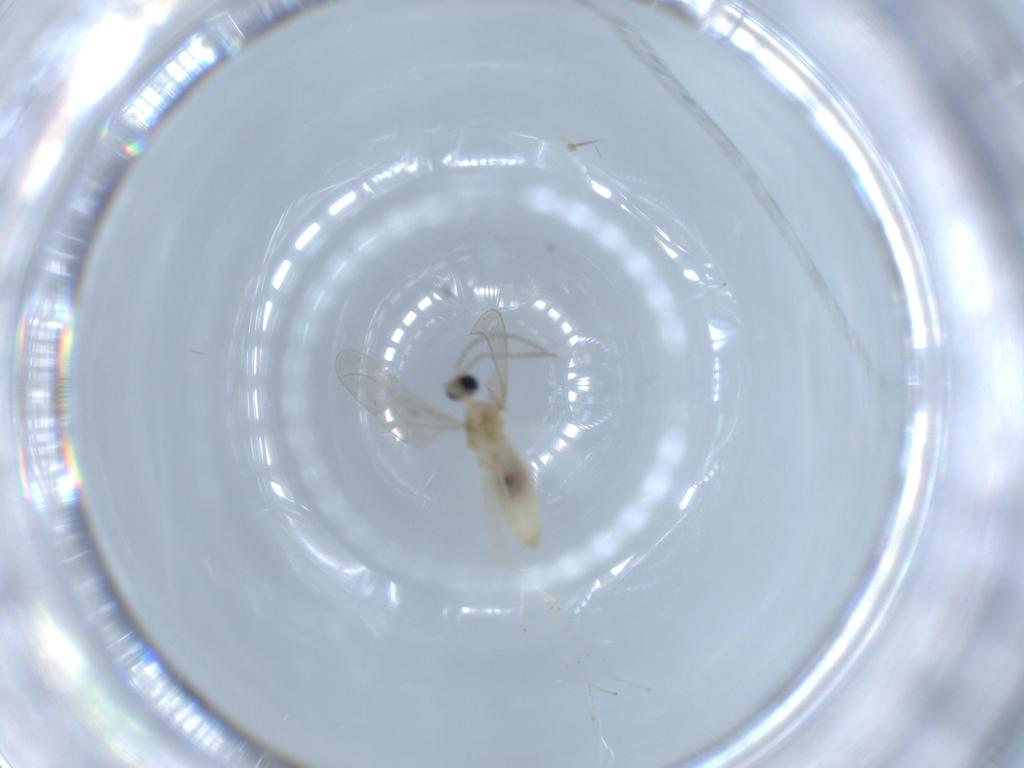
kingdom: Animalia
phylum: Arthropoda
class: Insecta
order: Diptera
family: Cecidomyiidae
